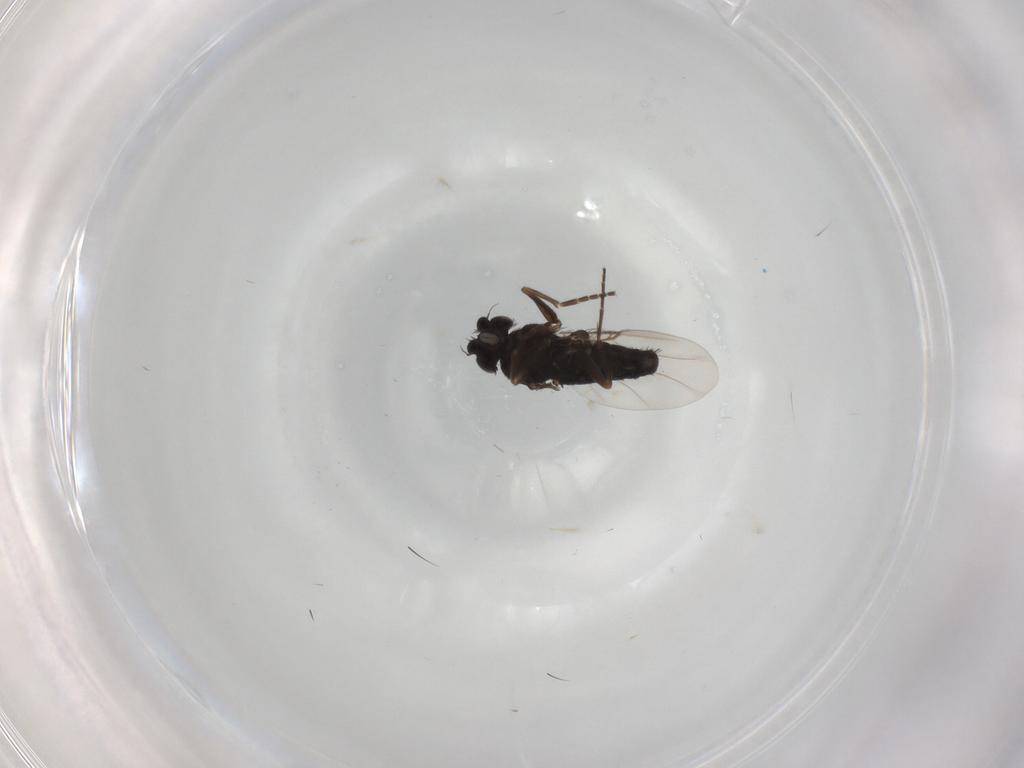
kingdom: Animalia
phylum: Arthropoda
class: Insecta
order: Diptera
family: Phoridae
